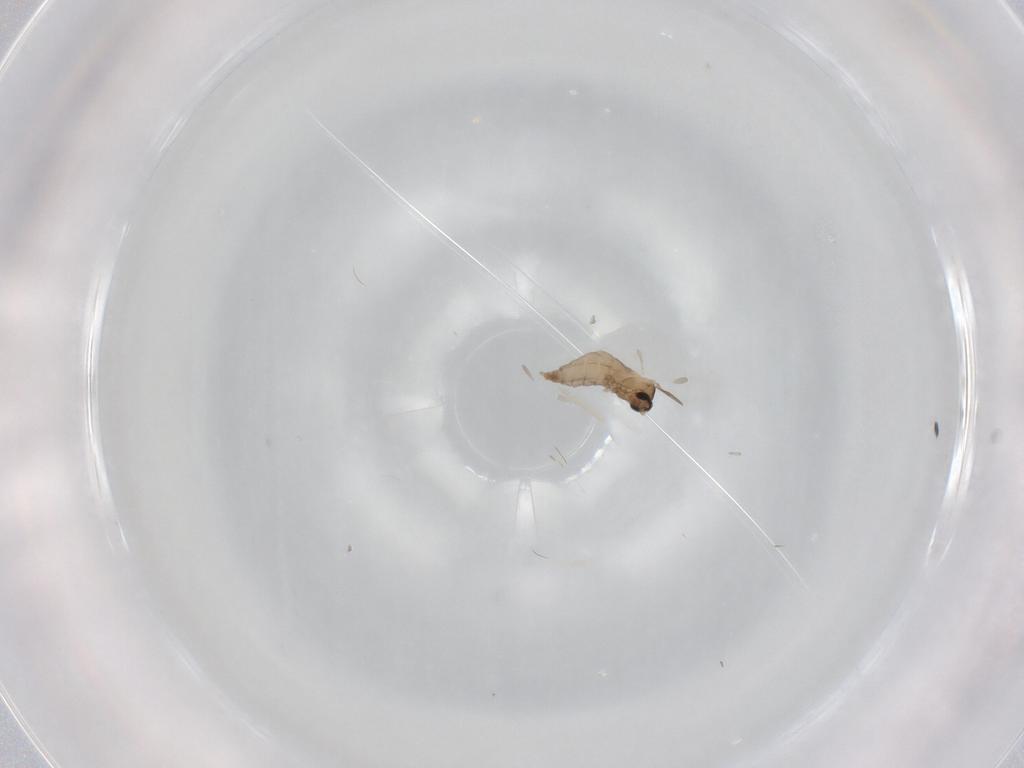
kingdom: Animalia
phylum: Arthropoda
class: Insecta
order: Diptera
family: Cecidomyiidae
